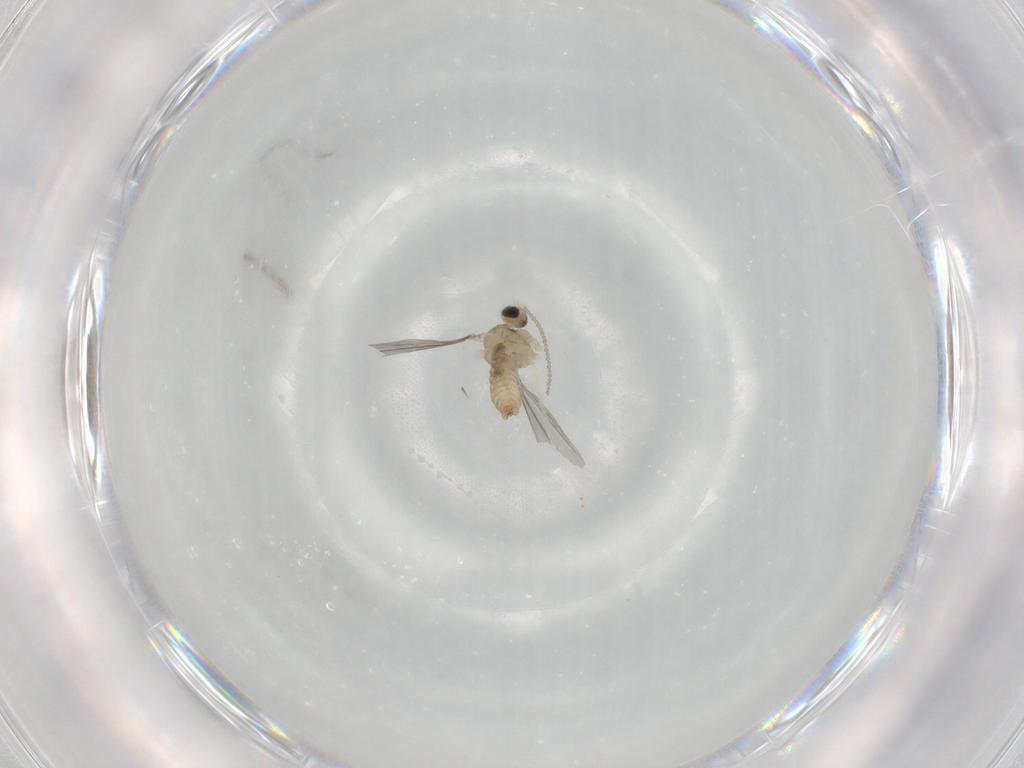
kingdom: Animalia
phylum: Arthropoda
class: Insecta
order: Diptera
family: Cecidomyiidae
